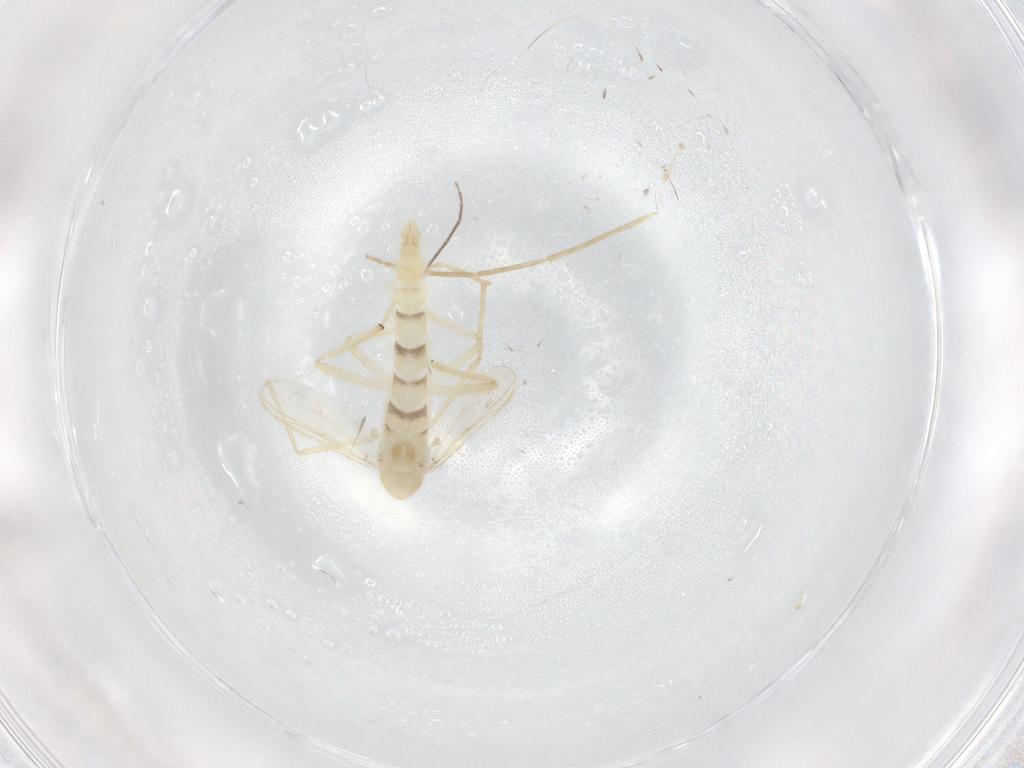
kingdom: Animalia
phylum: Arthropoda
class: Insecta
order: Diptera
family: Chironomidae
